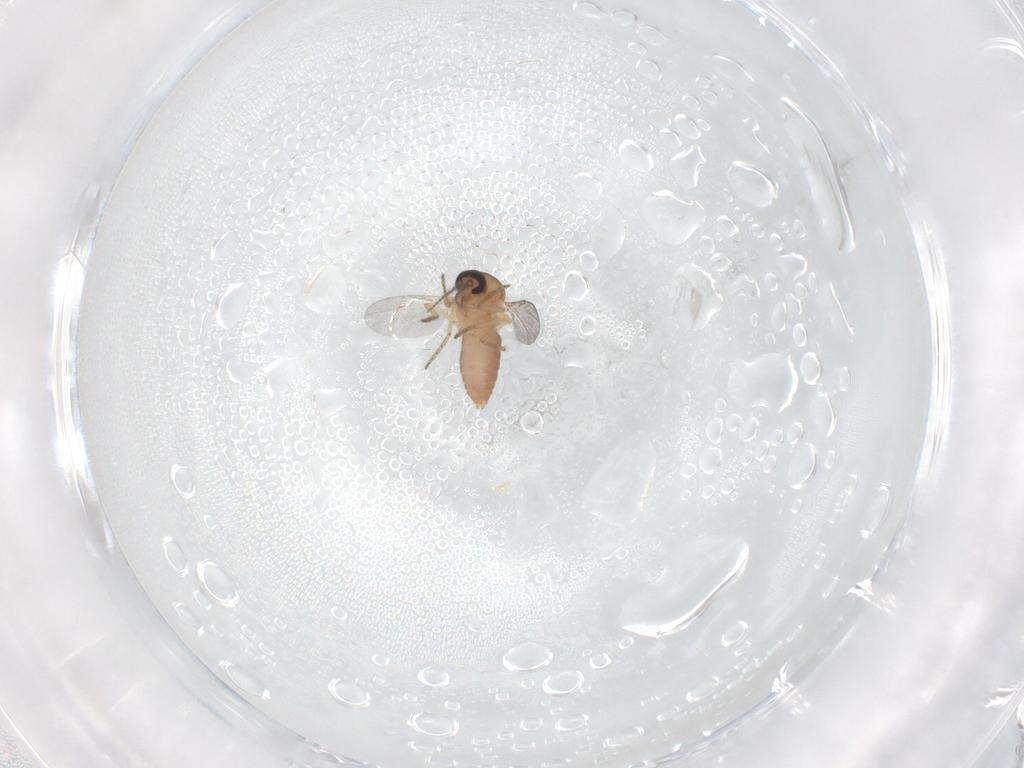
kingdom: Animalia
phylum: Arthropoda
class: Insecta
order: Diptera
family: Ceratopogonidae
